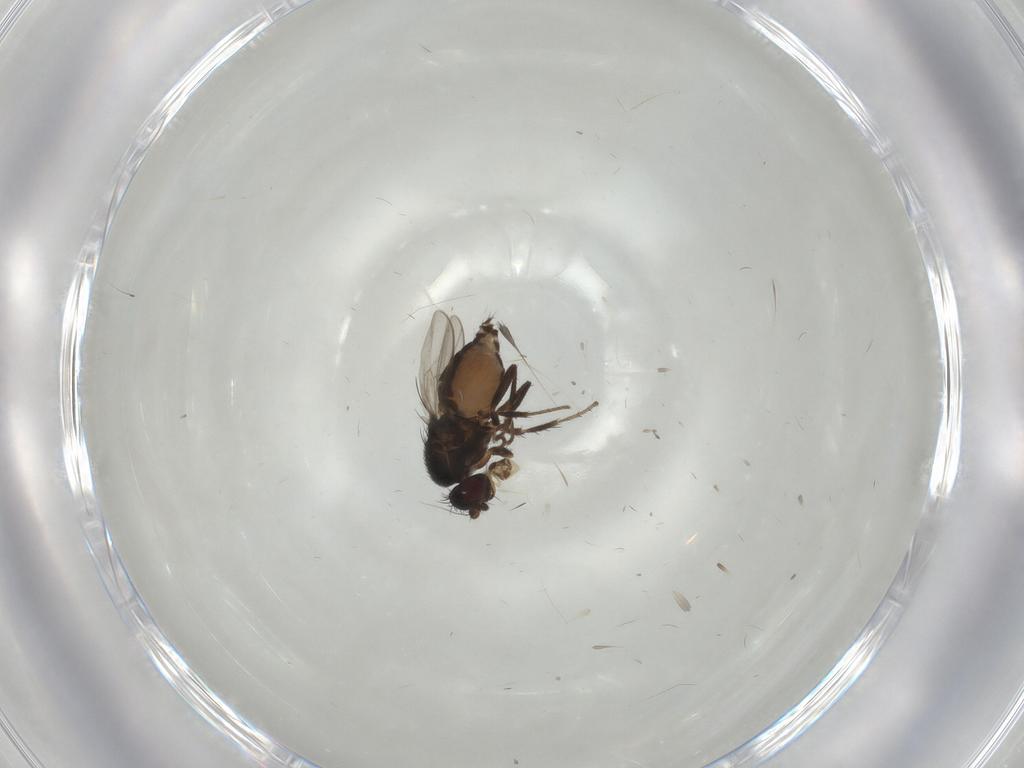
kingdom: Animalia
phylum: Arthropoda
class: Insecta
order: Diptera
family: Sphaeroceridae
